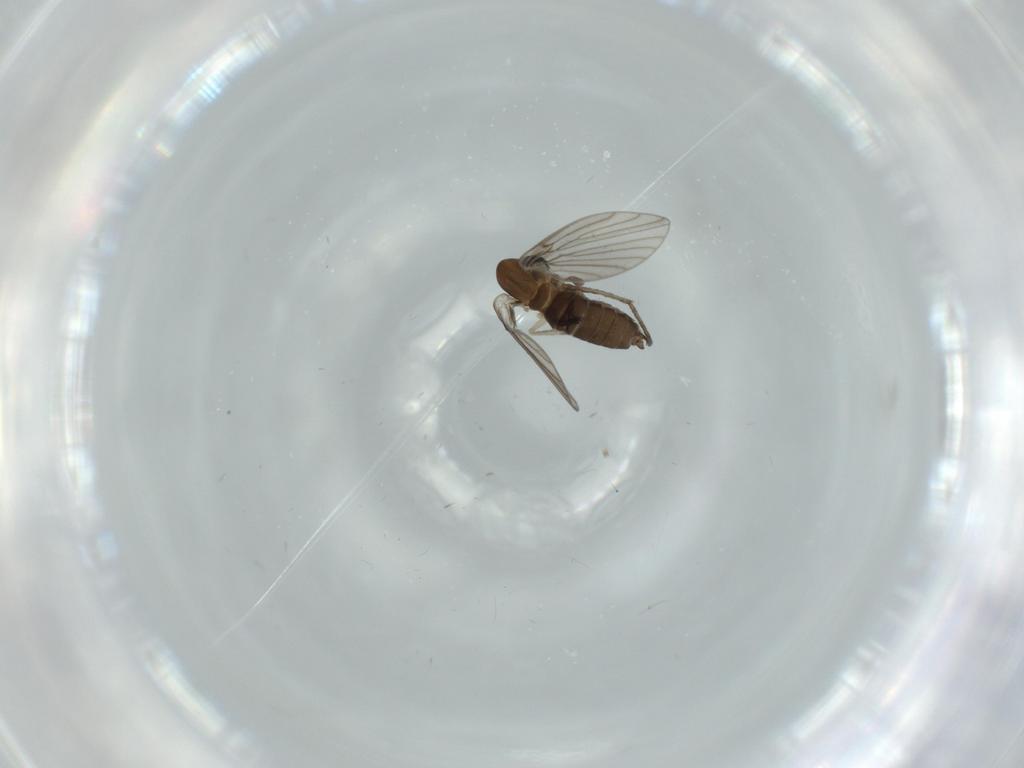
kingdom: Animalia
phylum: Arthropoda
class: Insecta
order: Diptera
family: Psychodidae
